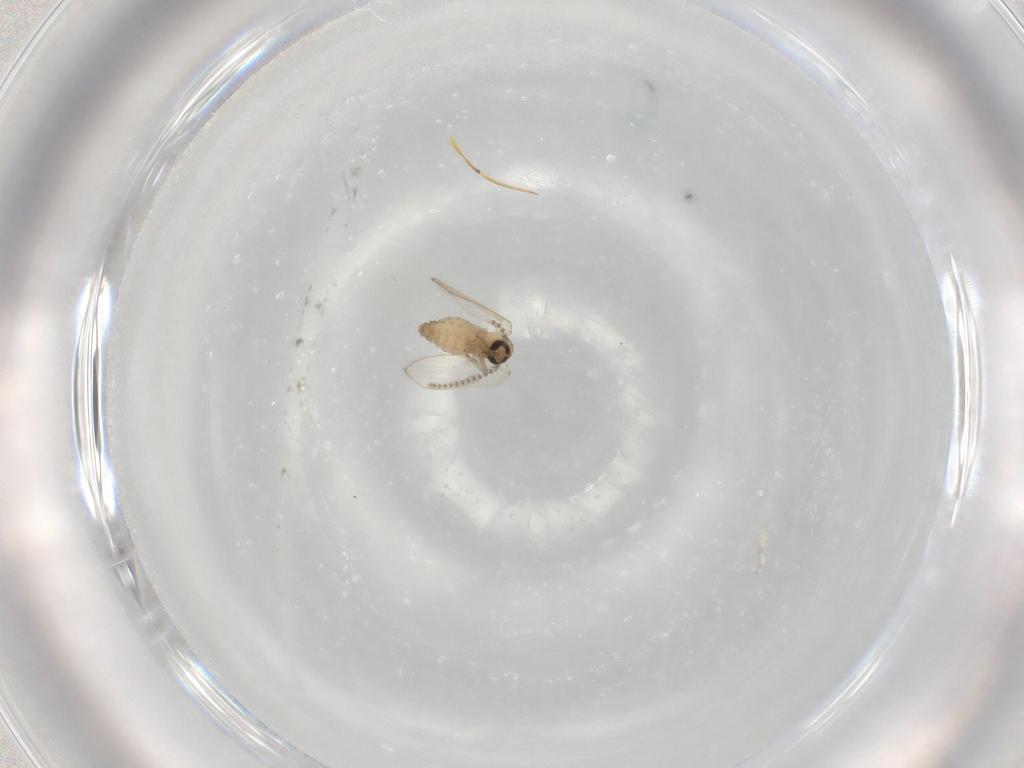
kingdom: Animalia
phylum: Arthropoda
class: Insecta
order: Diptera
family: Psychodidae
